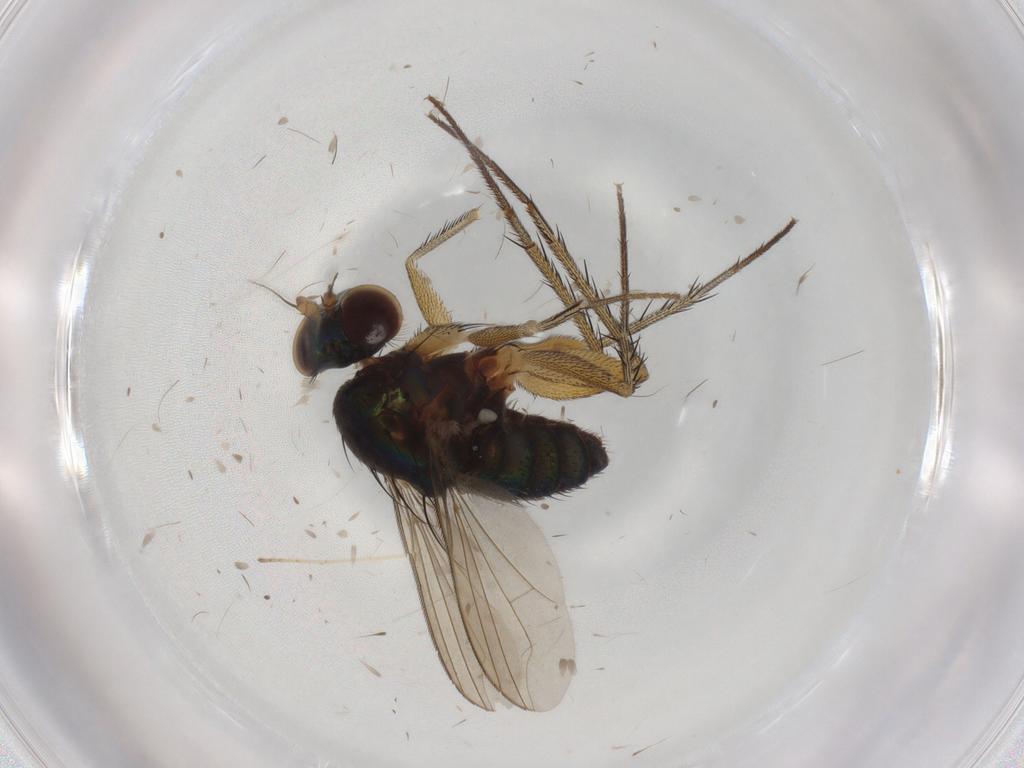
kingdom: Animalia
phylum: Arthropoda
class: Insecta
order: Diptera
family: Dolichopodidae
